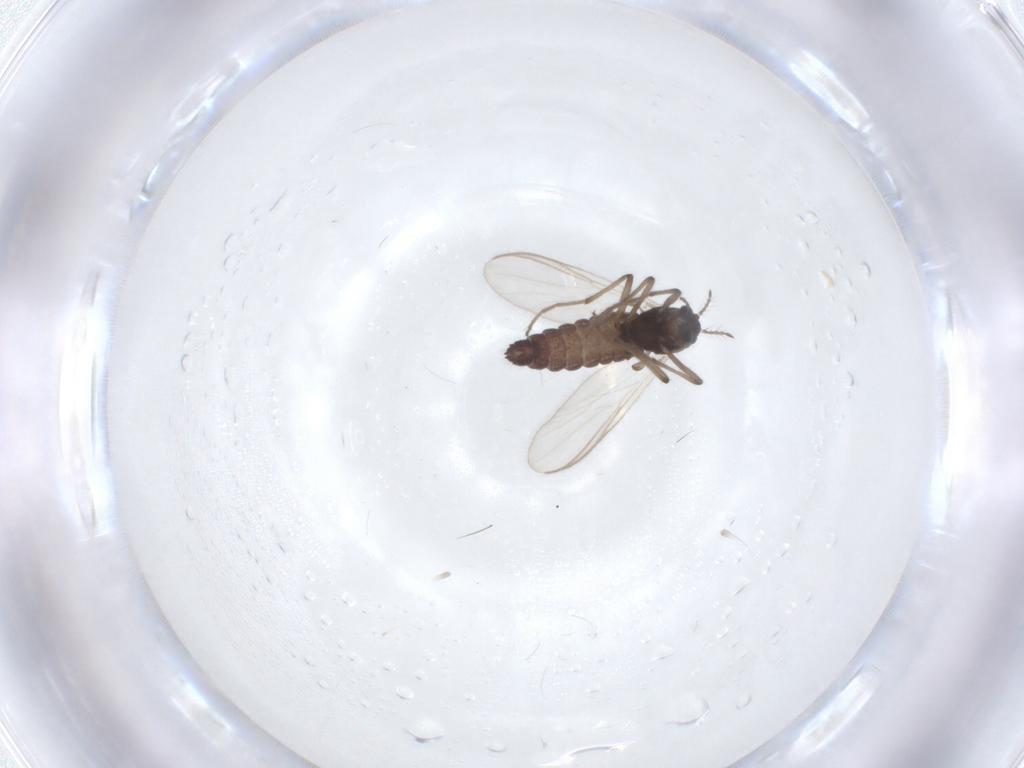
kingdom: Animalia
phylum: Arthropoda
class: Insecta
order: Diptera
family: Chironomidae
